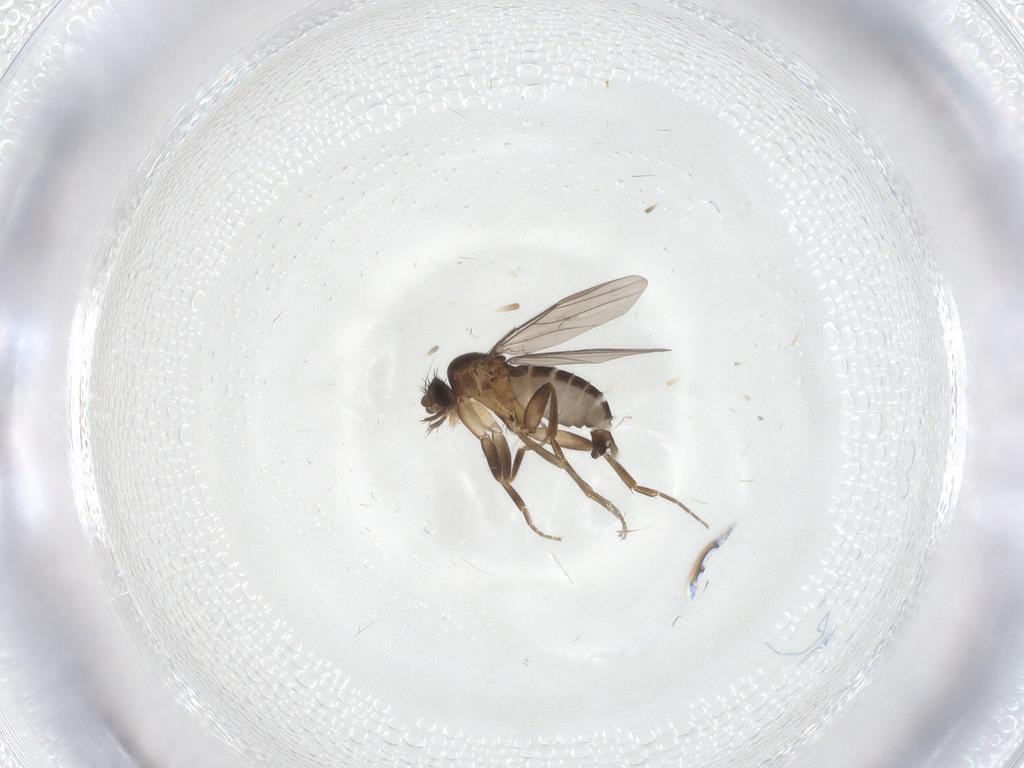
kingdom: Animalia
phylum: Arthropoda
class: Insecta
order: Diptera
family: Phoridae
